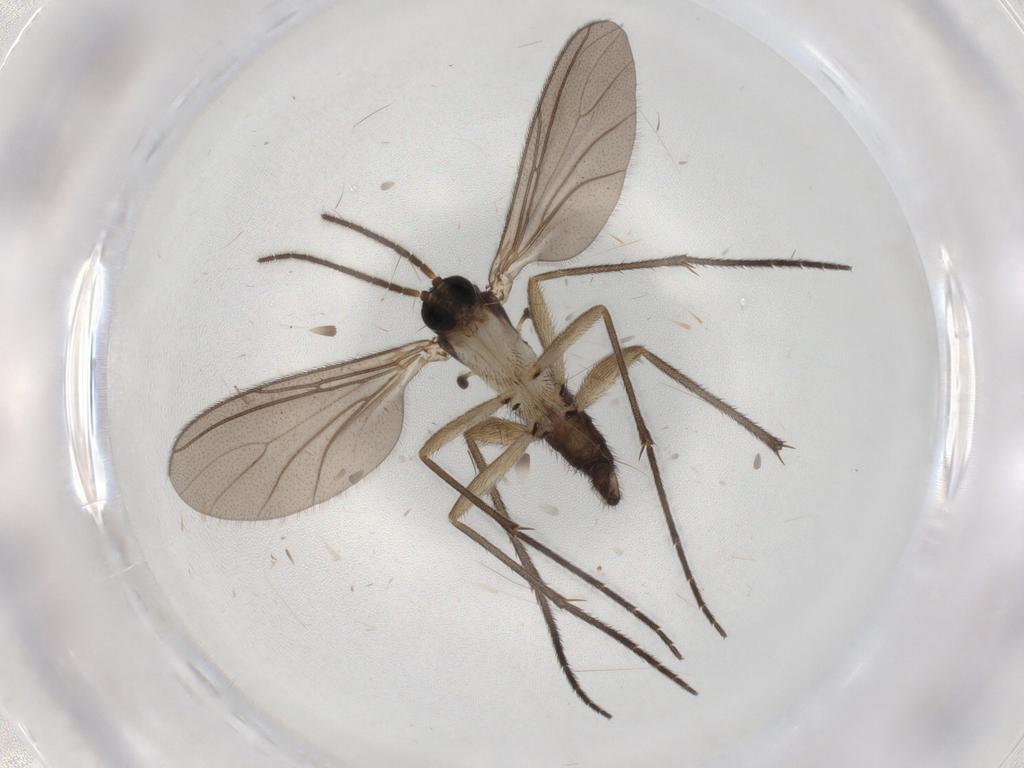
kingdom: Animalia
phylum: Arthropoda
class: Insecta
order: Diptera
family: Sciaridae
